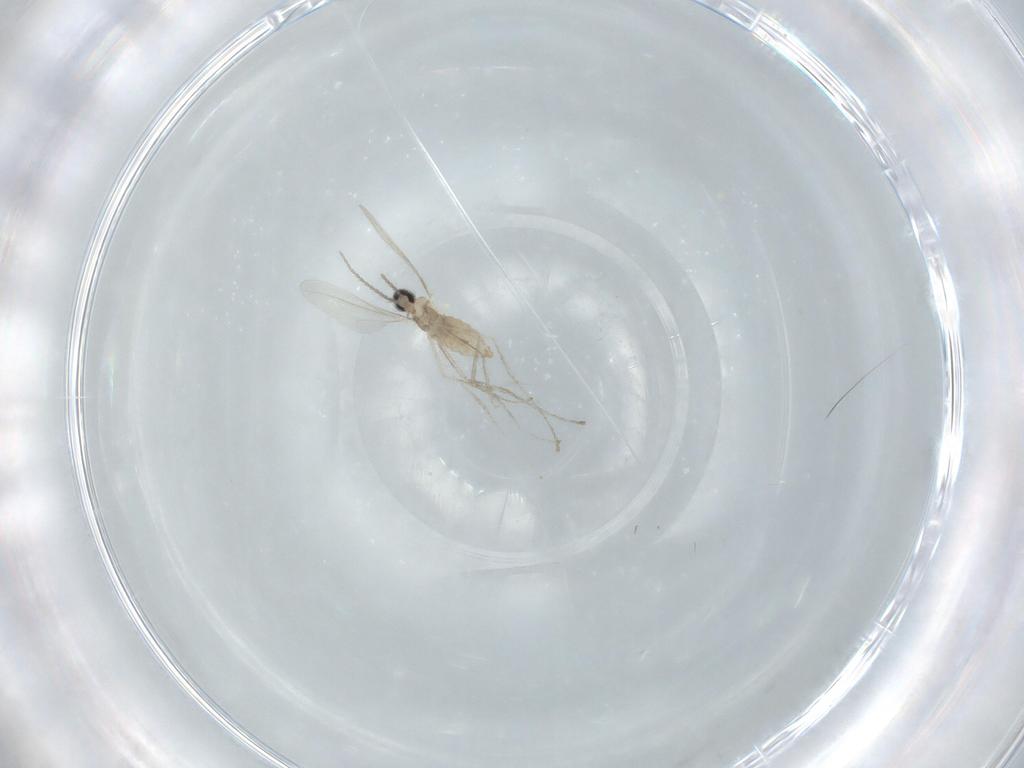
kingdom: Animalia
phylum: Arthropoda
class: Insecta
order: Diptera
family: Cecidomyiidae
